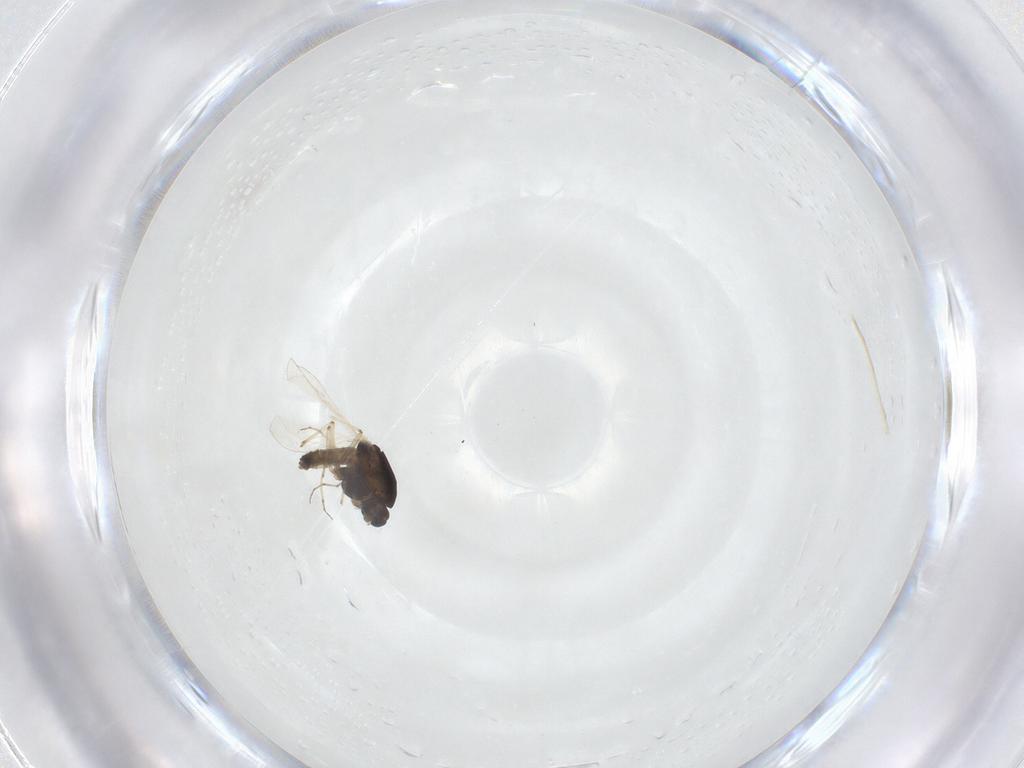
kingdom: Animalia
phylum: Arthropoda
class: Insecta
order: Diptera
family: Chironomidae
